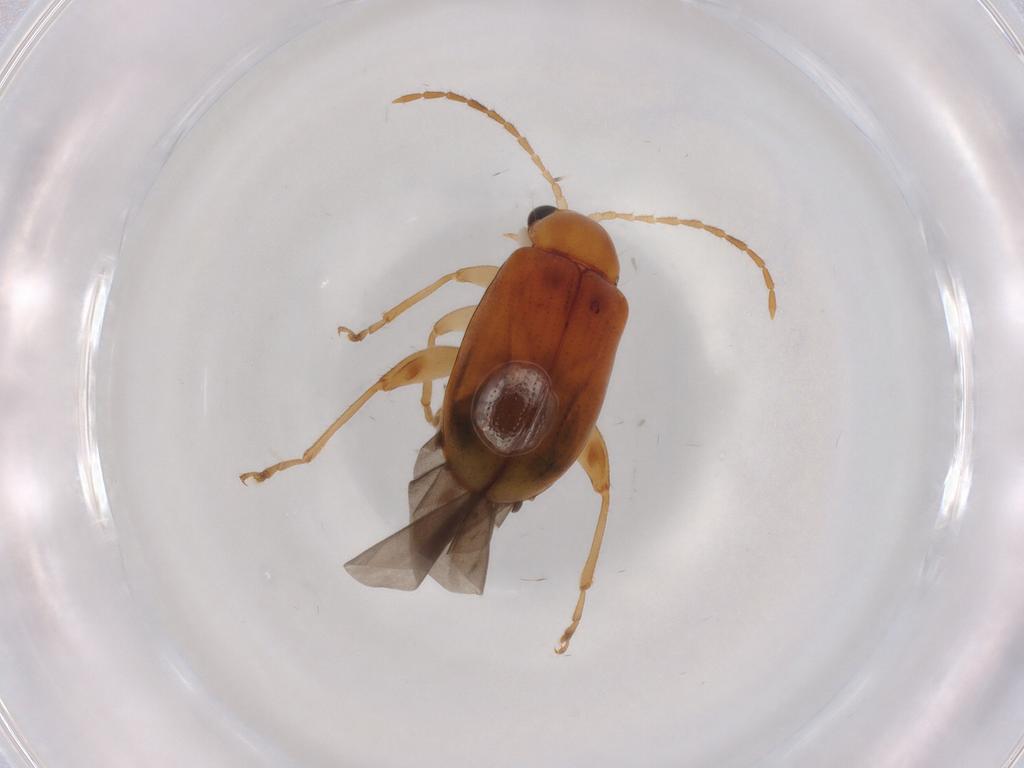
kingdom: Animalia
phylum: Arthropoda
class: Insecta
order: Coleoptera
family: Chrysomelidae
